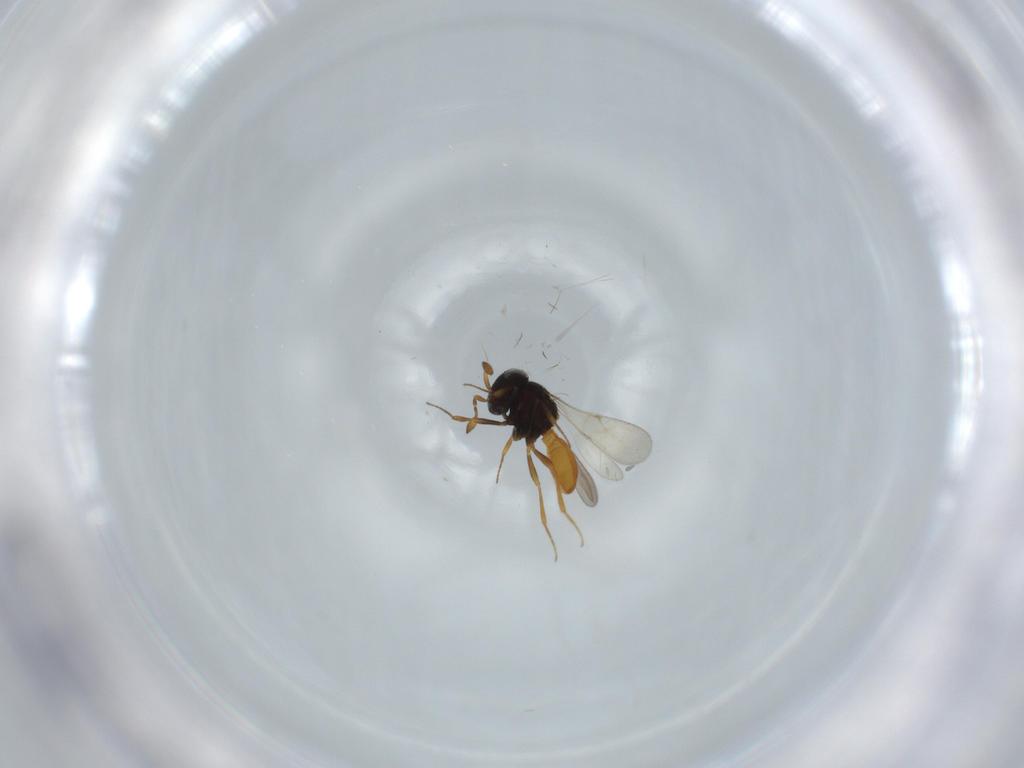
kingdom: Animalia
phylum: Arthropoda
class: Insecta
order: Hymenoptera
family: Scelionidae
